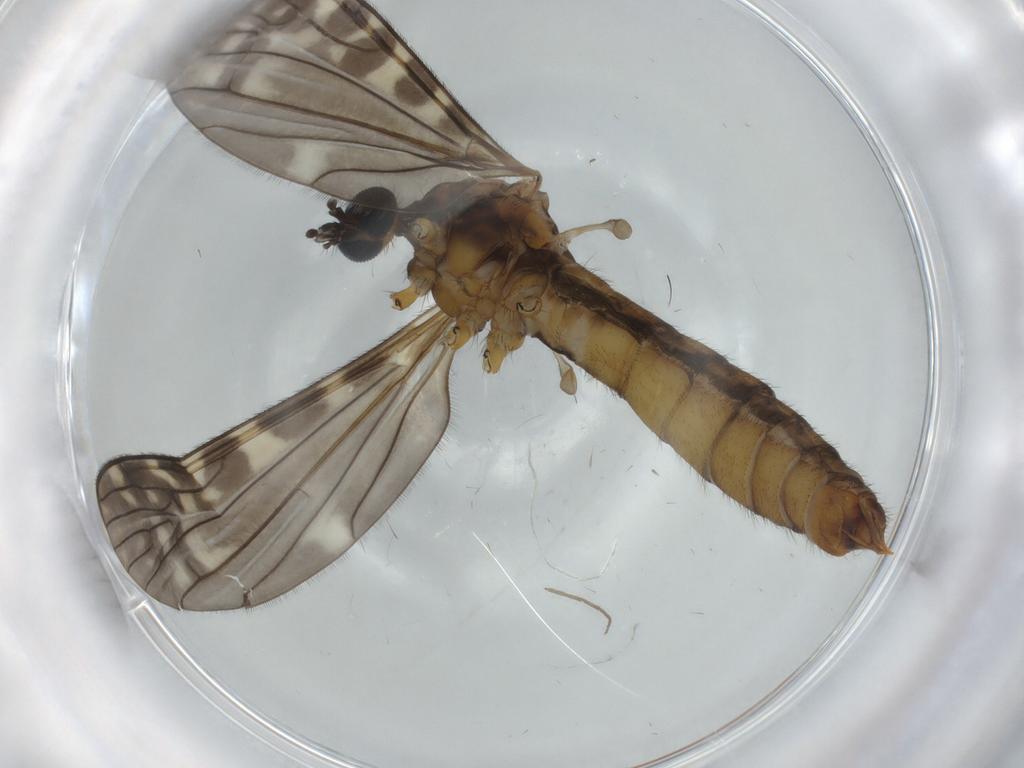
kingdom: Animalia
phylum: Arthropoda
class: Insecta
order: Diptera
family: Limoniidae
